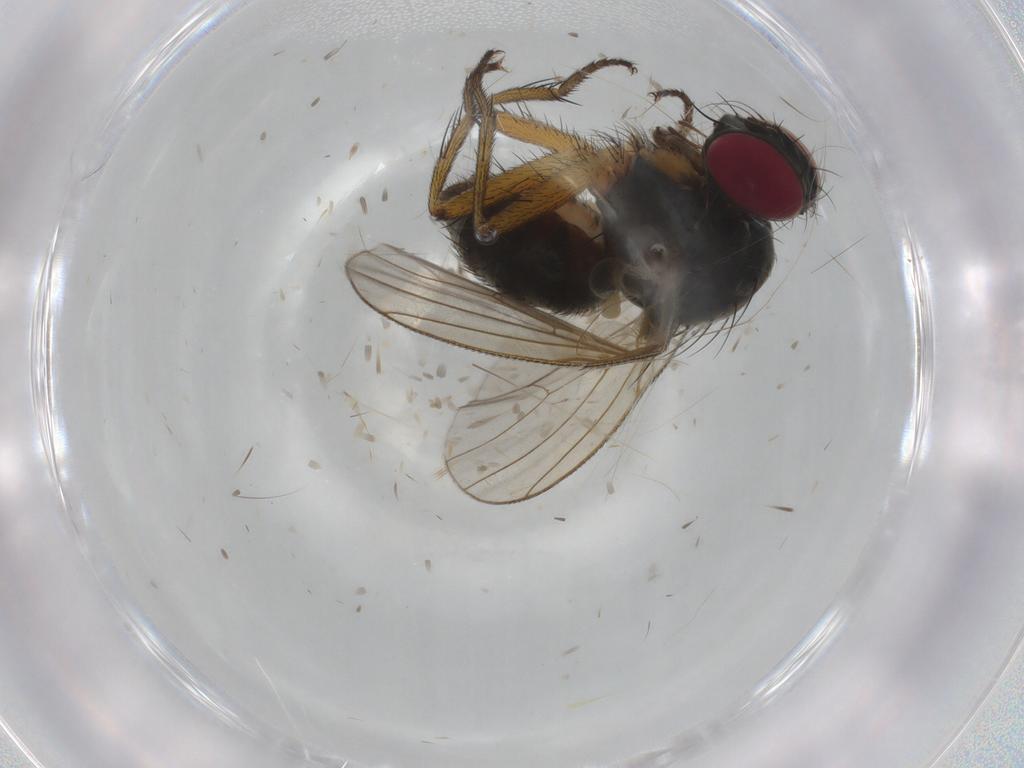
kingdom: Animalia
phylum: Arthropoda
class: Insecta
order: Diptera
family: Muscidae
